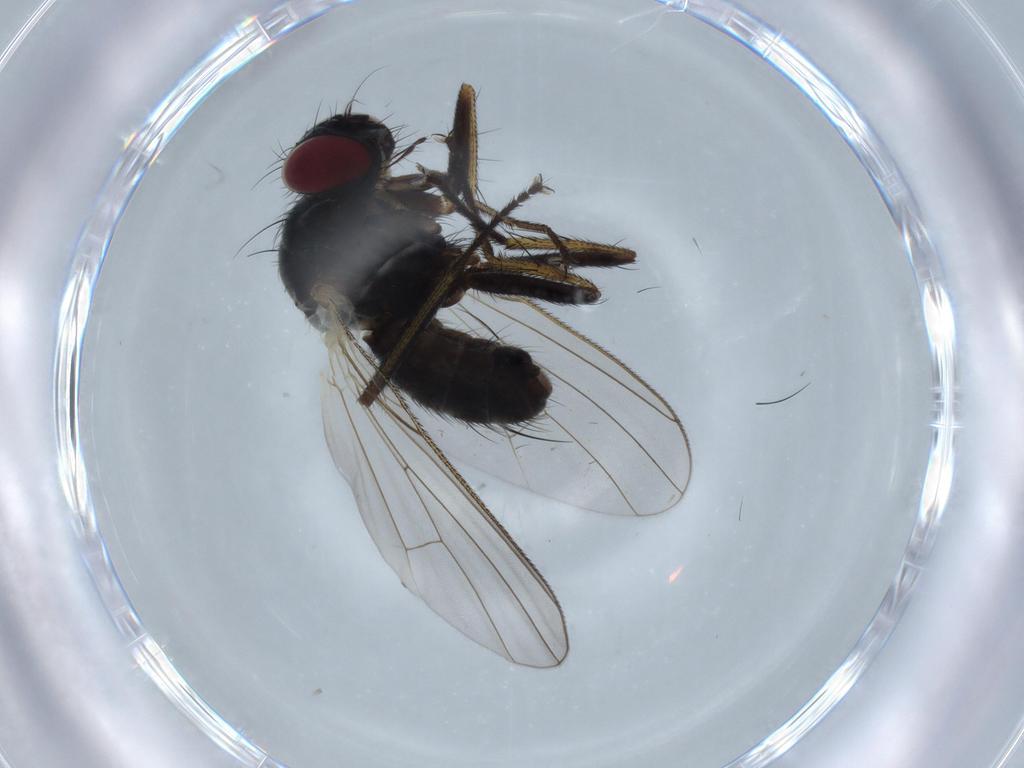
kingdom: Animalia
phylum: Arthropoda
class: Insecta
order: Diptera
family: Muscidae
